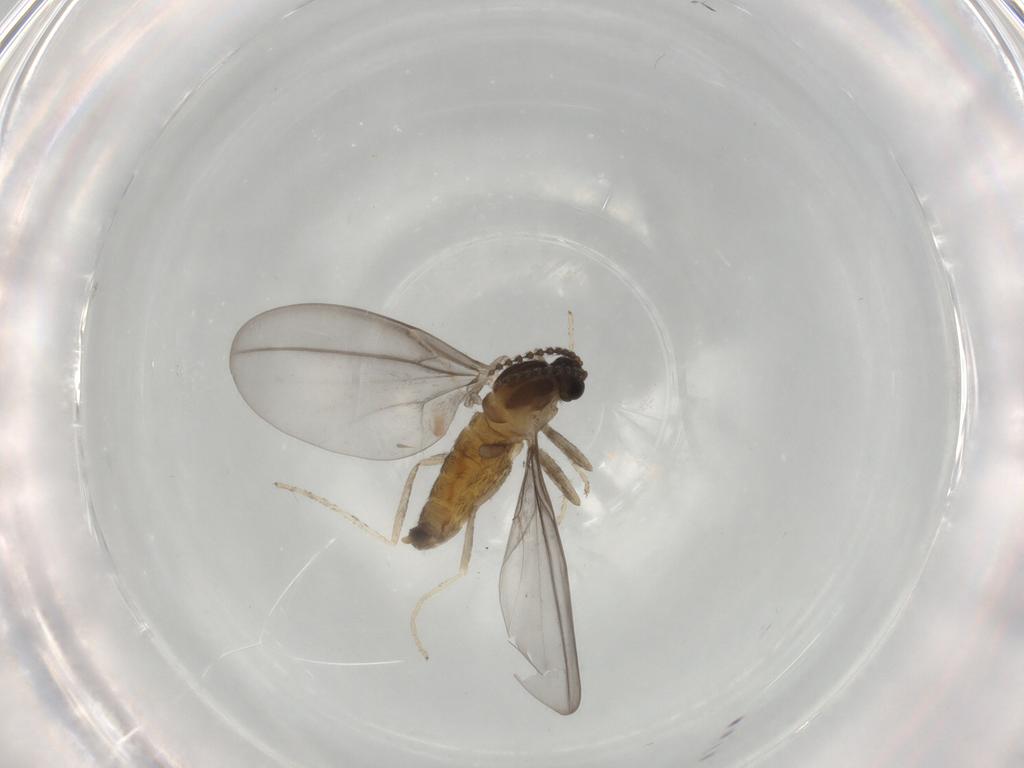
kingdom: Animalia
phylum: Arthropoda
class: Insecta
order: Diptera
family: Cecidomyiidae
